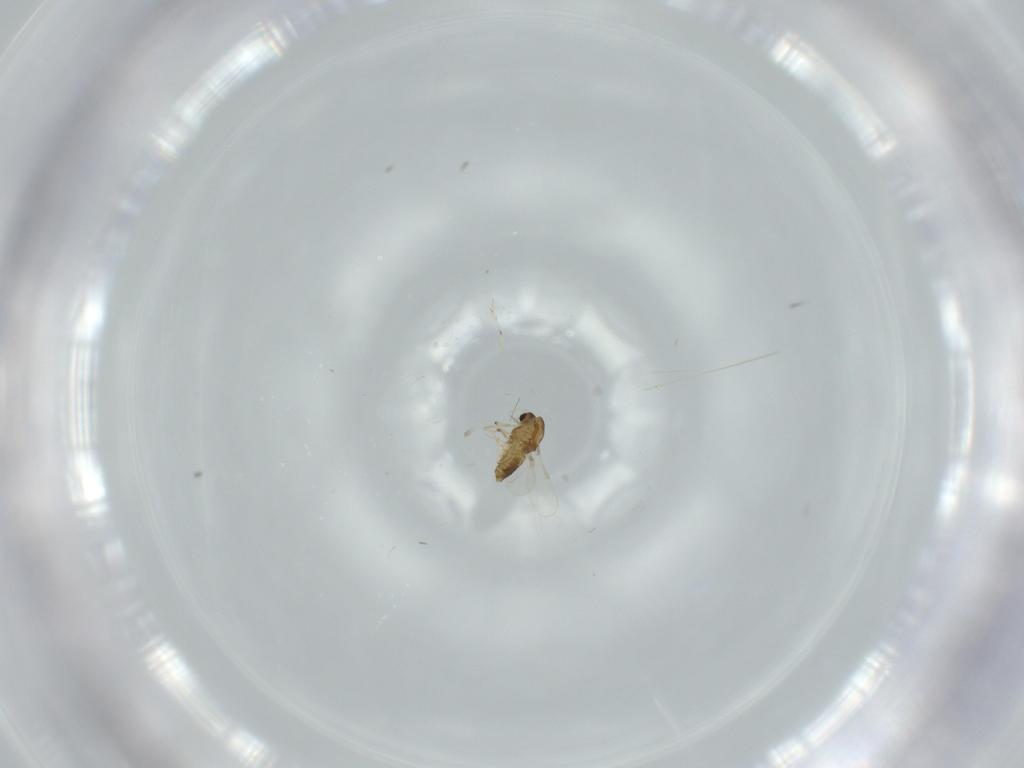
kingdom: Animalia
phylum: Arthropoda
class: Insecta
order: Diptera
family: Chironomidae
